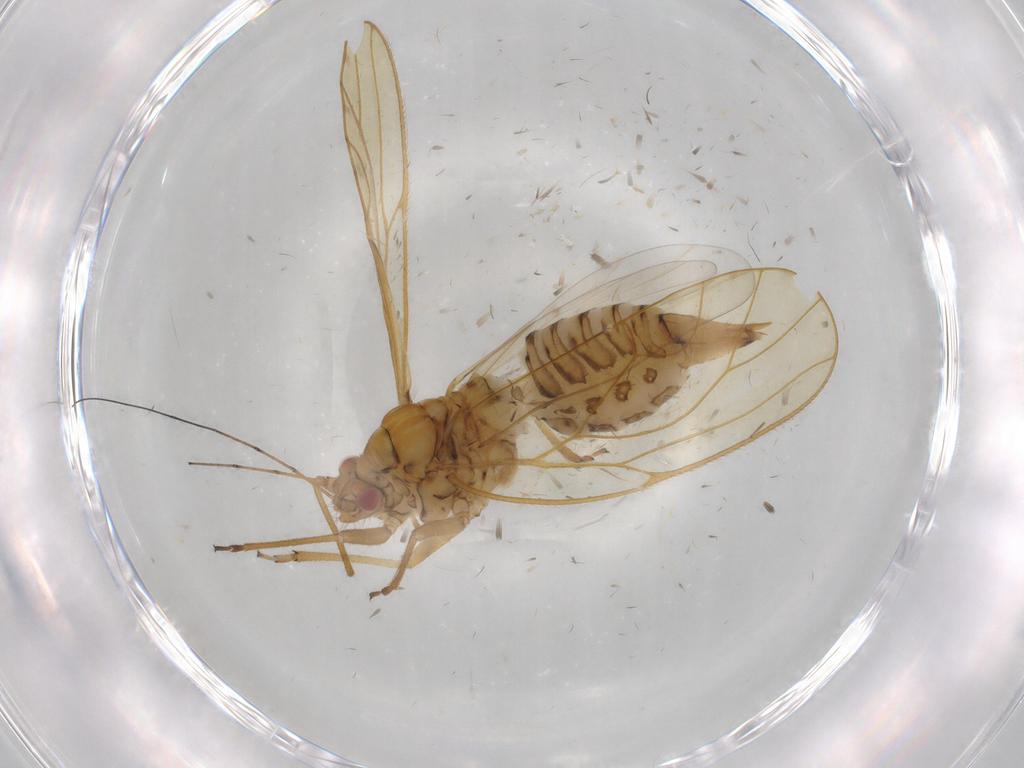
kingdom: Animalia
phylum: Arthropoda
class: Insecta
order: Hemiptera
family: Psyllidae
